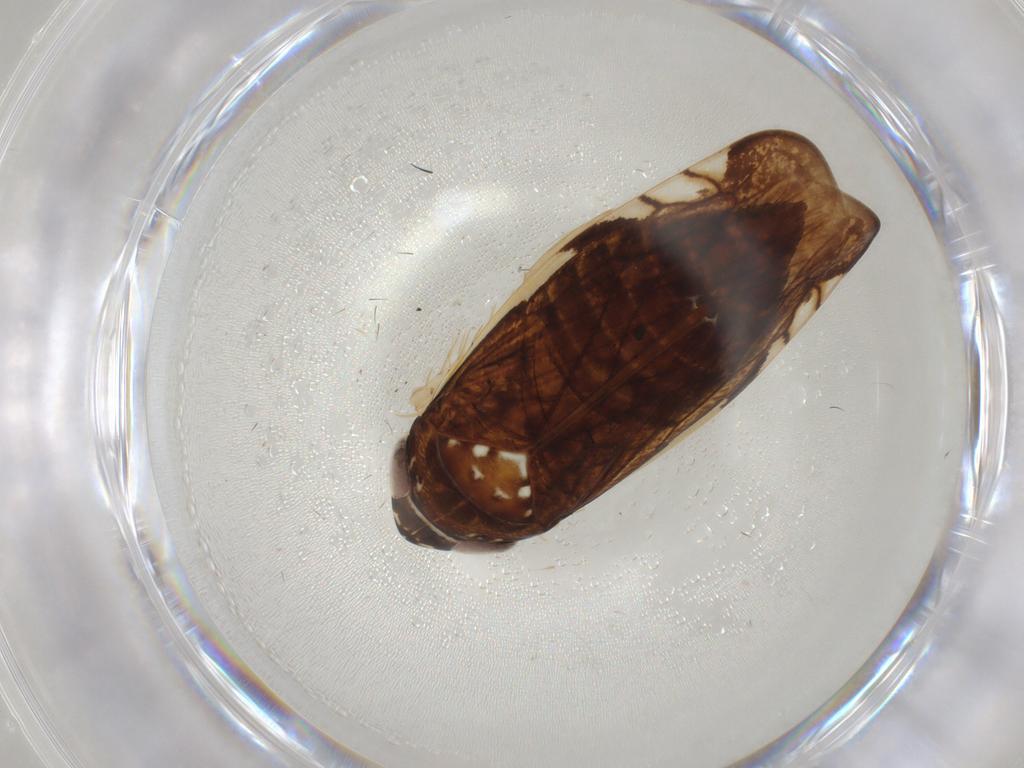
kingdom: Animalia
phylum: Arthropoda
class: Insecta
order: Hemiptera
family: Cicadellidae
